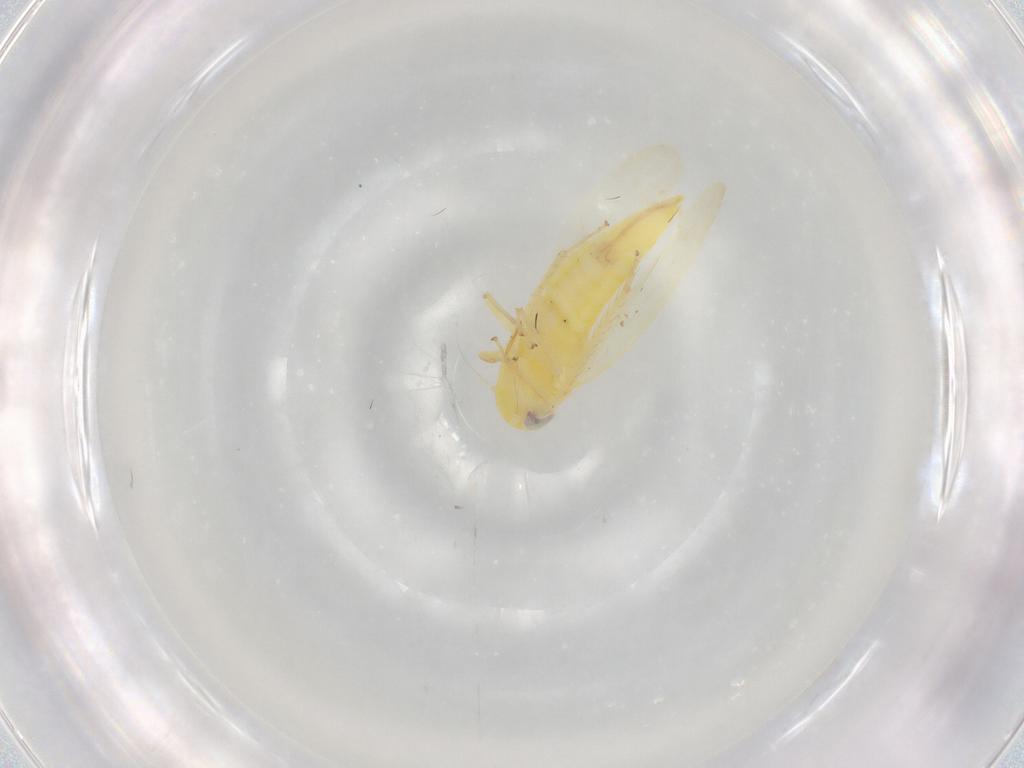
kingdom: Animalia
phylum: Arthropoda
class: Insecta
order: Hemiptera
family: Cicadellidae
